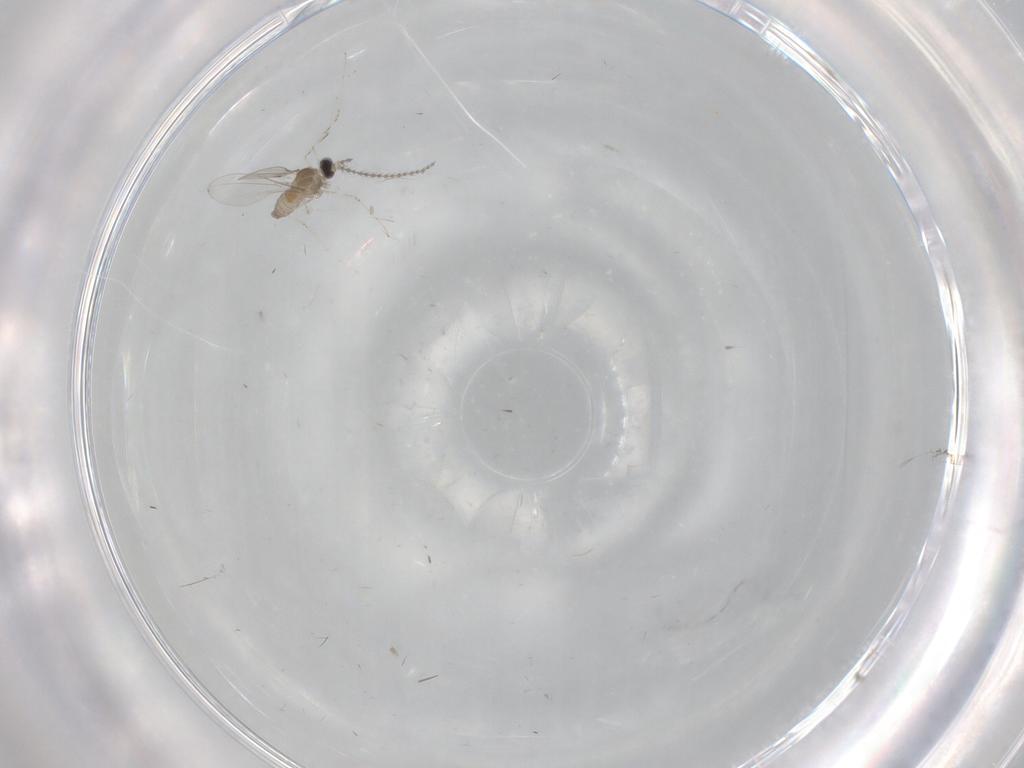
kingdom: Animalia
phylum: Arthropoda
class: Insecta
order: Diptera
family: Cecidomyiidae
